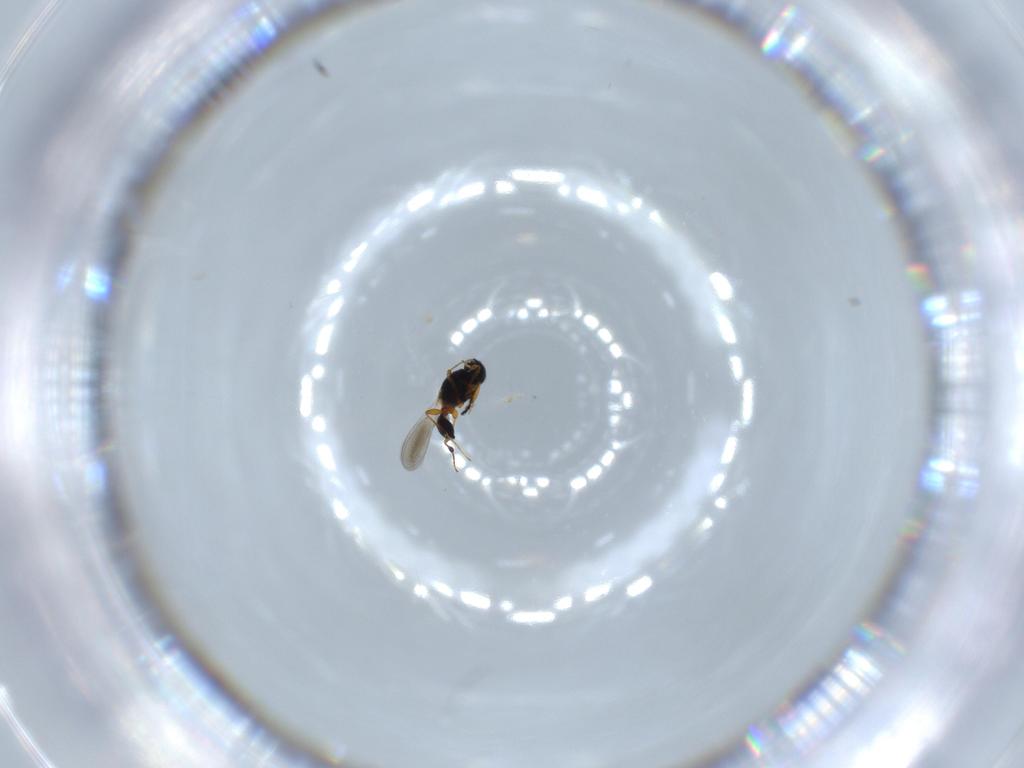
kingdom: Animalia
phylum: Arthropoda
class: Insecta
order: Hymenoptera
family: Platygastridae
